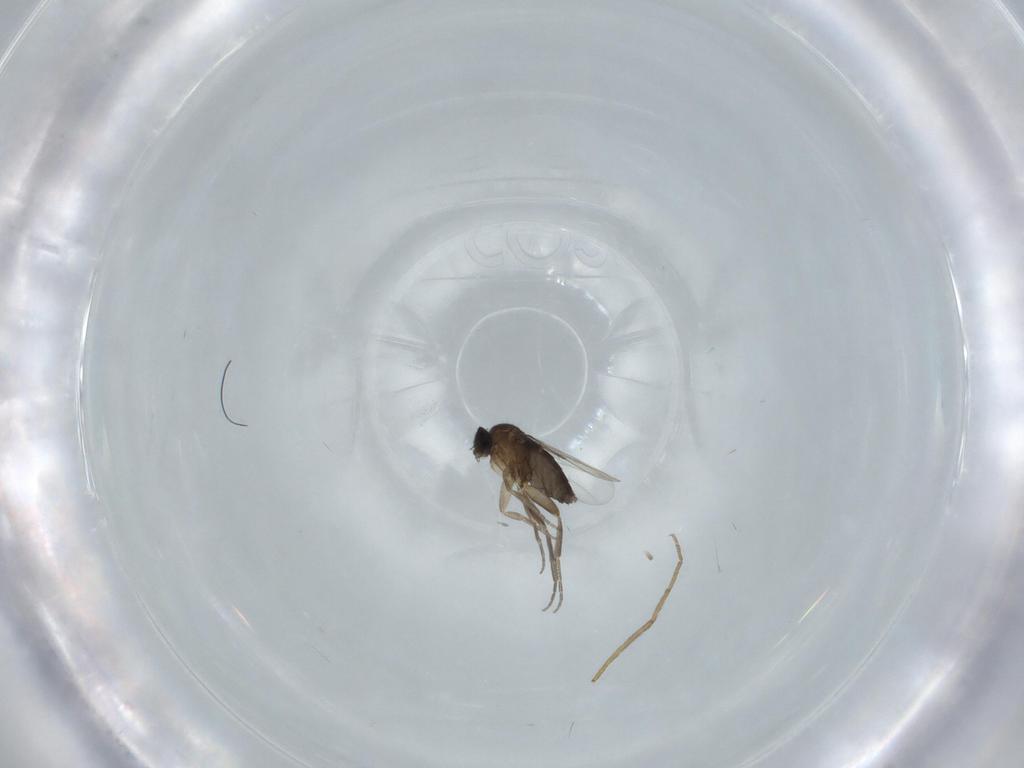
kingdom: Animalia
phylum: Arthropoda
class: Insecta
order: Diptera
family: Phoridae
